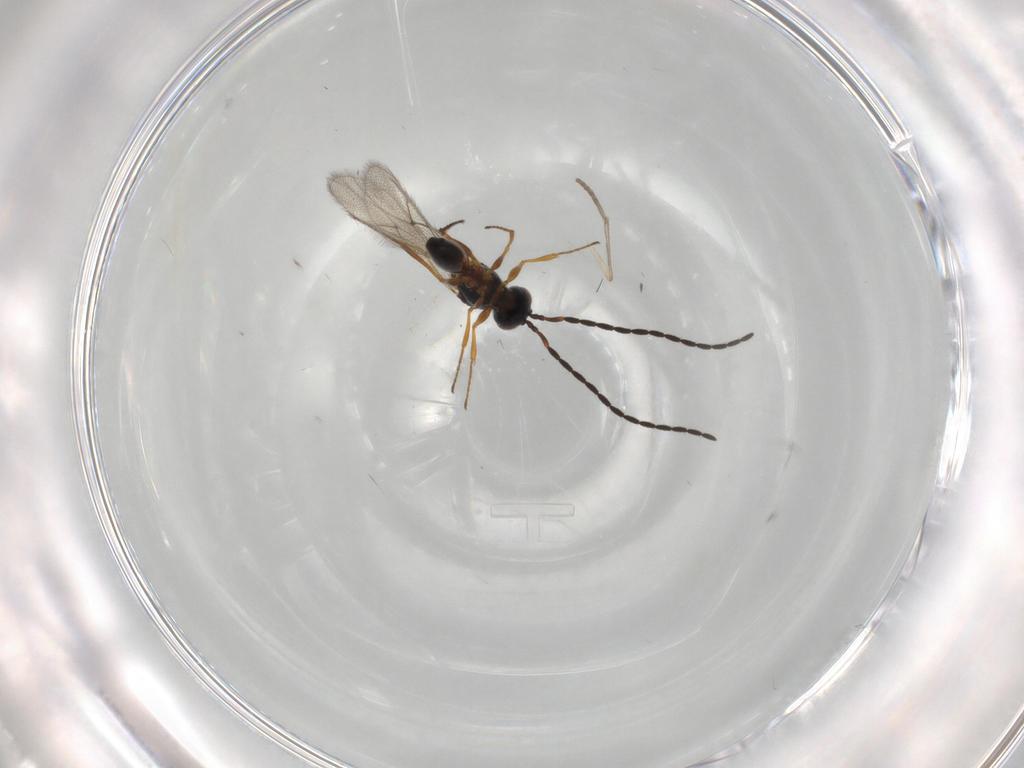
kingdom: Animalia
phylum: Arthropoda
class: Insecta
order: Hymenoptera
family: Figitidae
